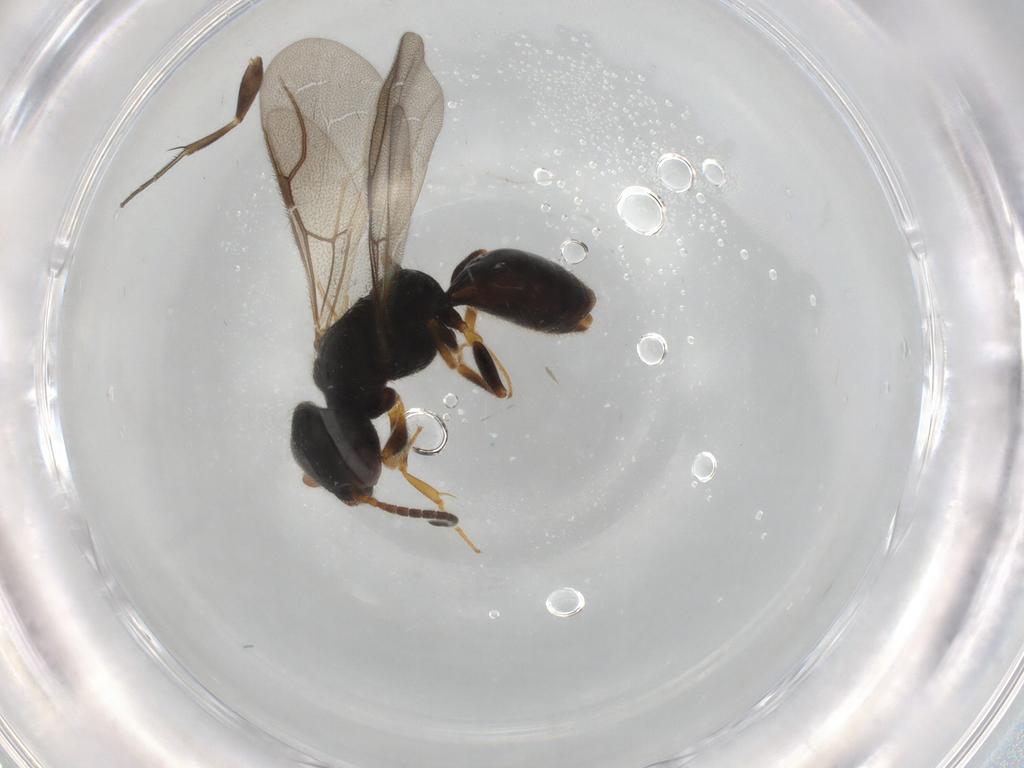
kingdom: Animalia
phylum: Arthropoda
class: Insecta
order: Hymenoptera
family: Bethylidae
